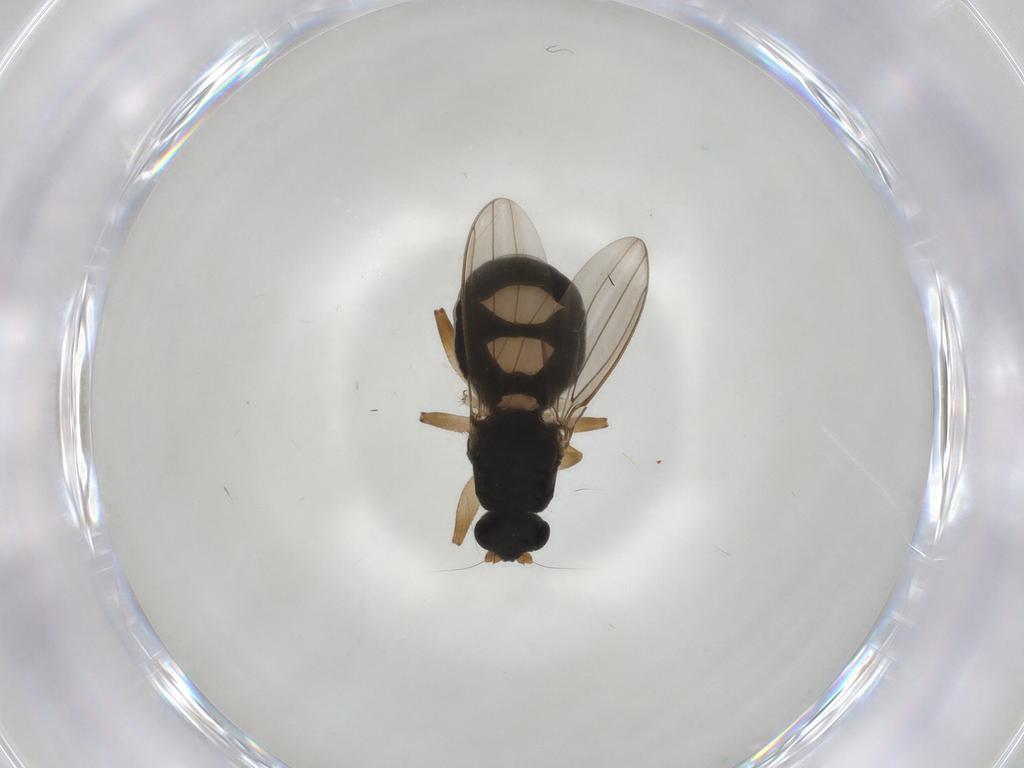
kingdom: Animalia
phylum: Arthropoda
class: Insecta
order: Diptera
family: Sphaeroceridae
